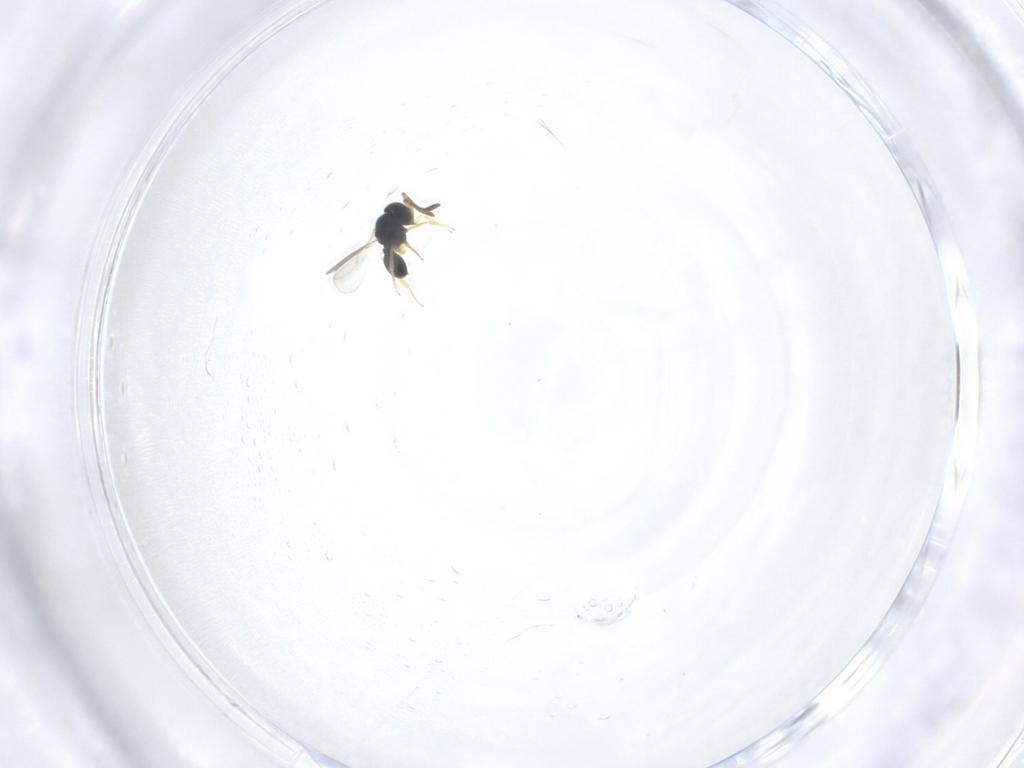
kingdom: Animalia
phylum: Arthropoda
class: Insecta
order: Hymenoptera
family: Scelionidae
